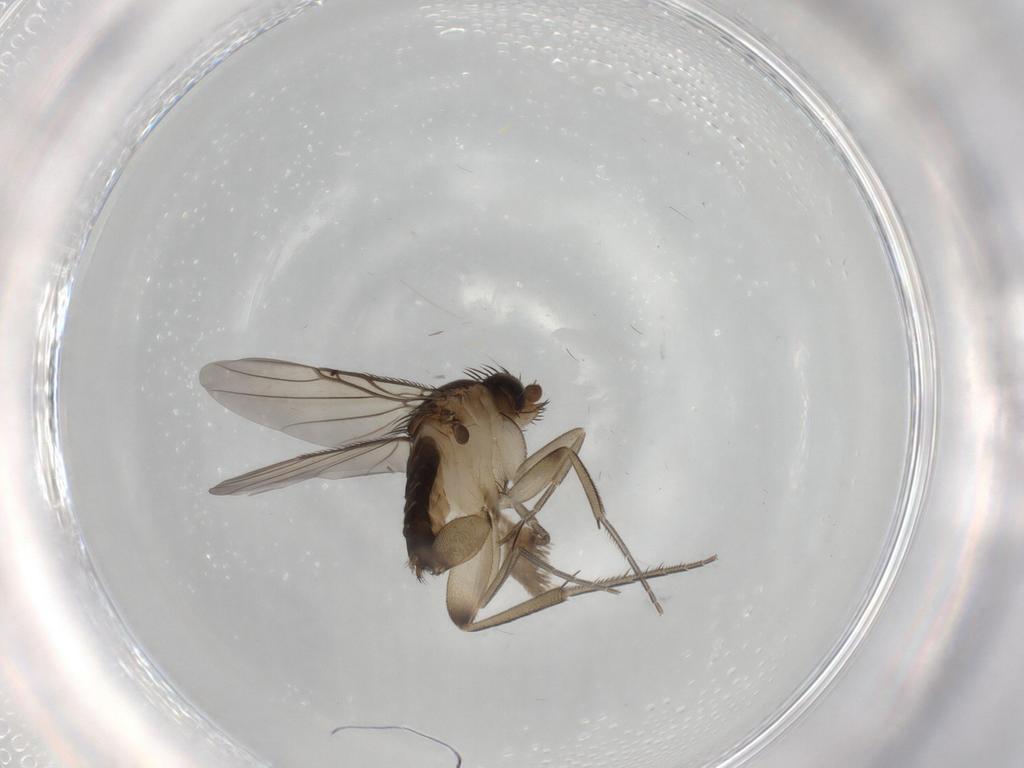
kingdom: Animalia
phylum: Arthropoda
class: Insecta
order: Diptera
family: Phoridae
